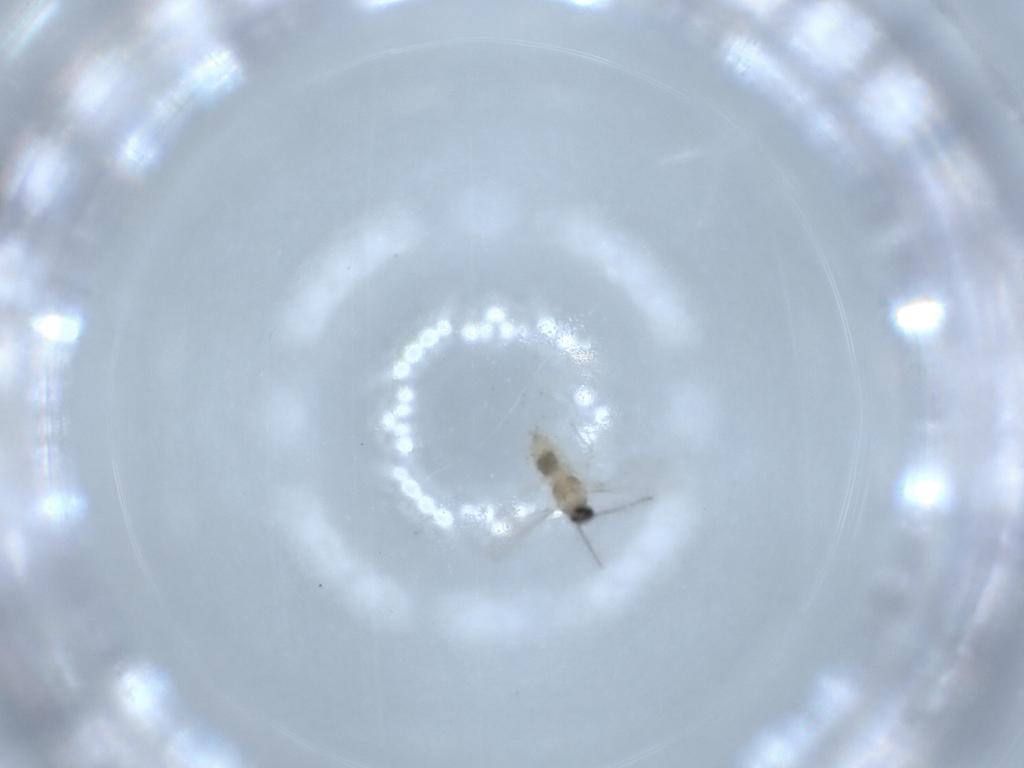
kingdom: Animalia
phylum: Arthropoda
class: Insecta
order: Diptera
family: Cecidomyiidae
